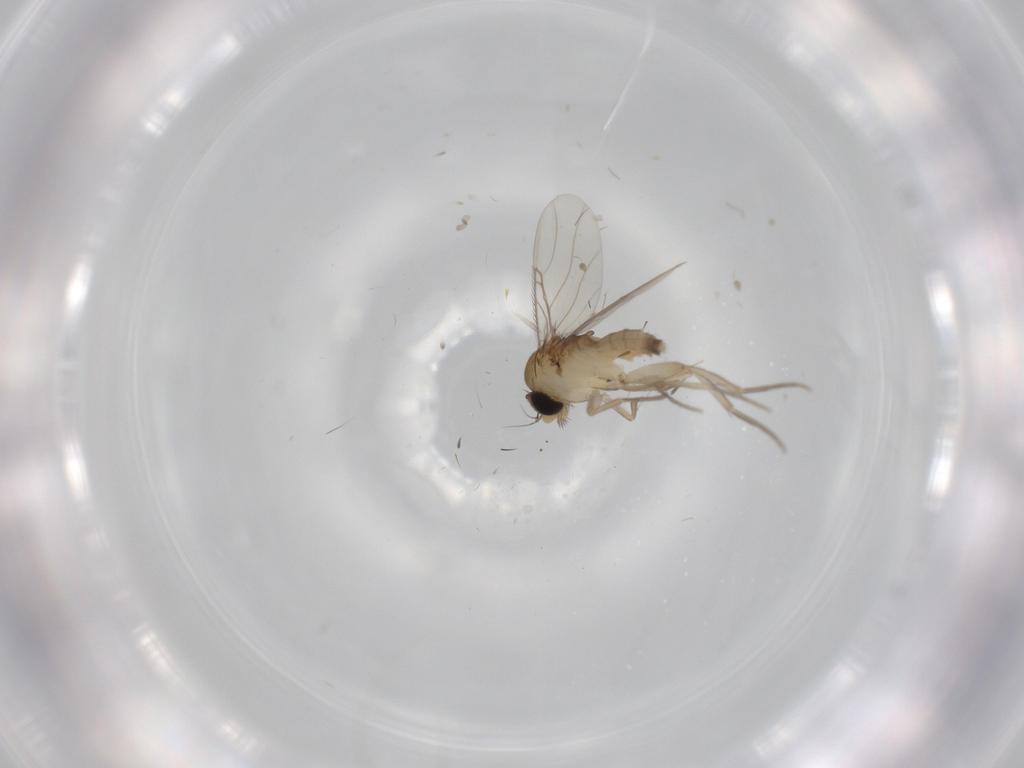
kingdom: Animalia
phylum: Arthropoda
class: Insecta
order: Diptera
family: Phoridae
